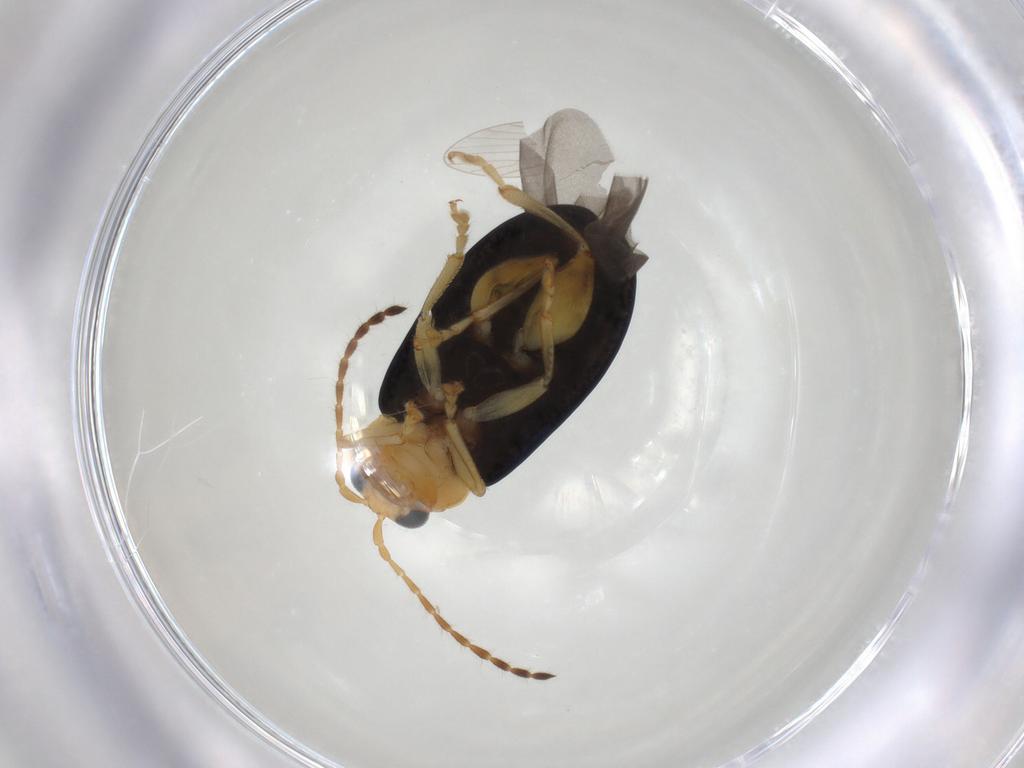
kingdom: Animalia
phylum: Arthropoda
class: Insecta
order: Coleoptera
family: Chrysomelidae
